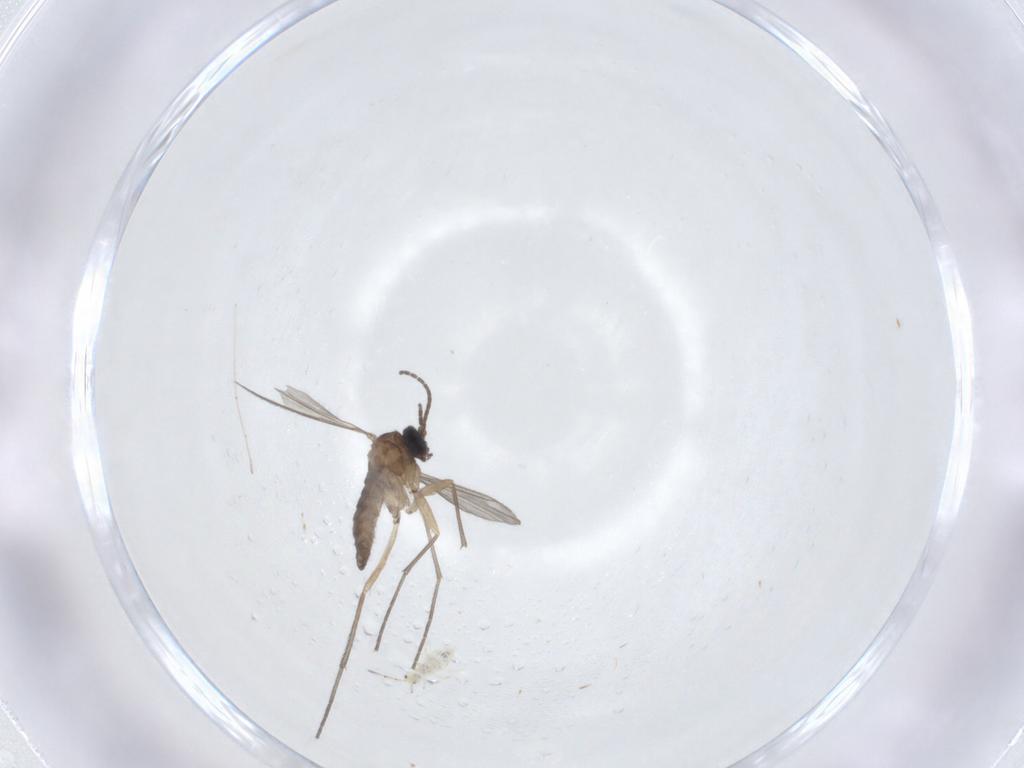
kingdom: Animalia
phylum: Arthropoda
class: Insecta
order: Diptera
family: Sciaridae
